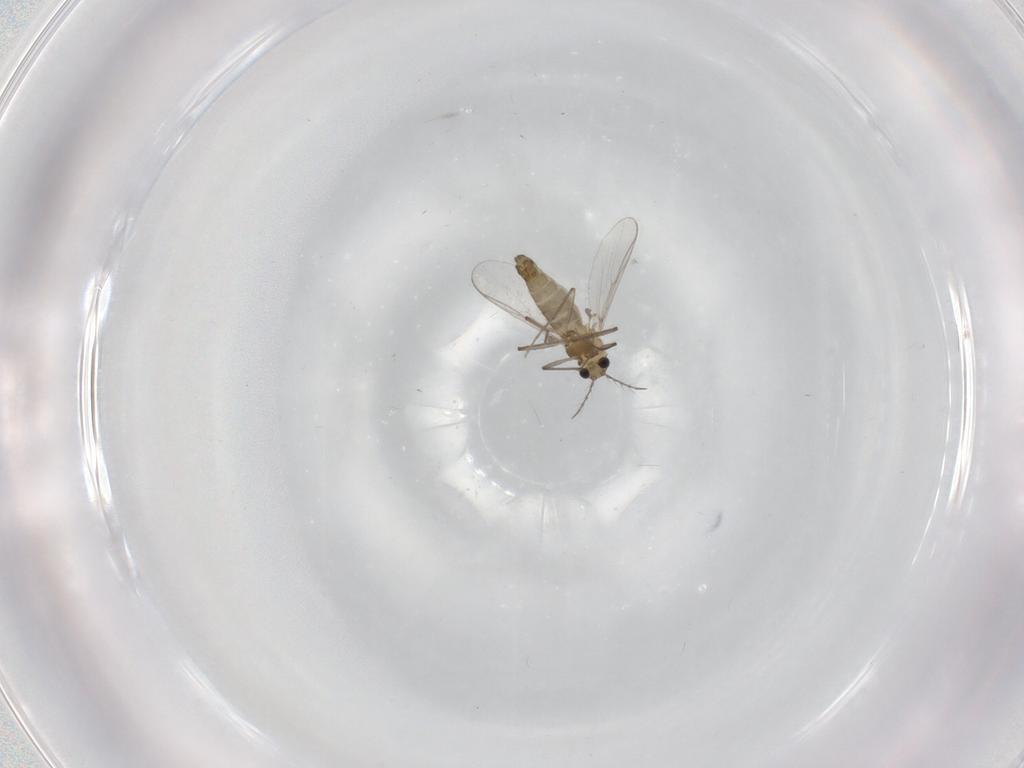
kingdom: Animalia
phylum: Arthropoda
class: Insecta
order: Diptera
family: Chironomidae
